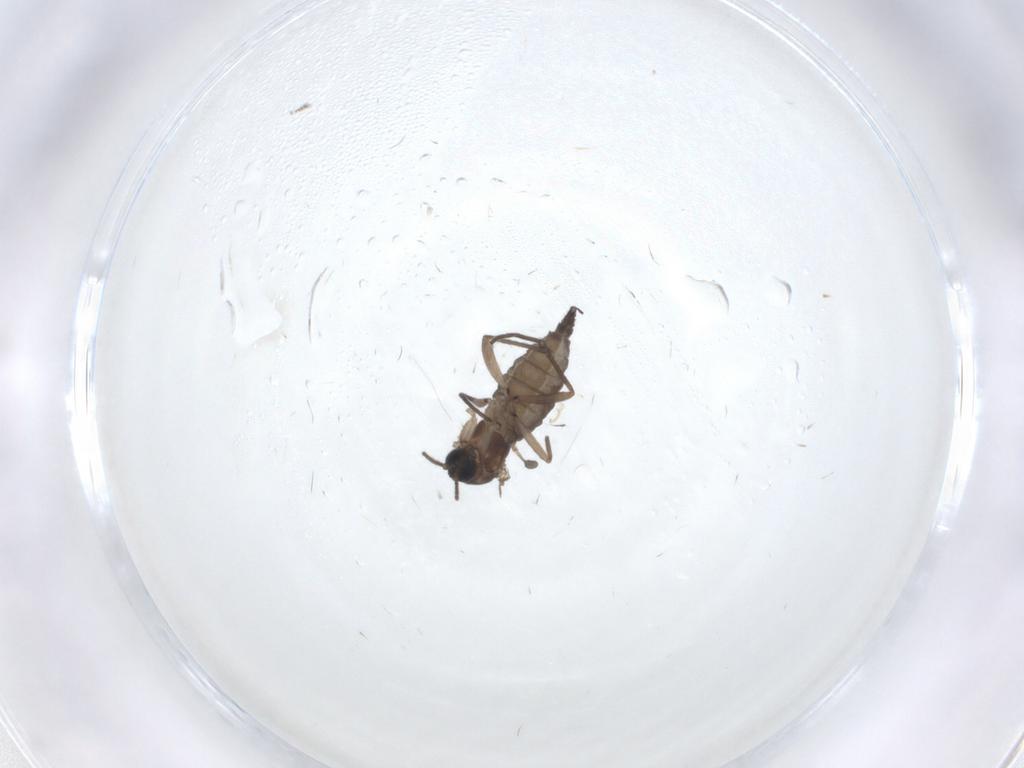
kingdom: Animalia
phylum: Arthropoda
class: Insecta
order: Diptera
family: Sciaridae
